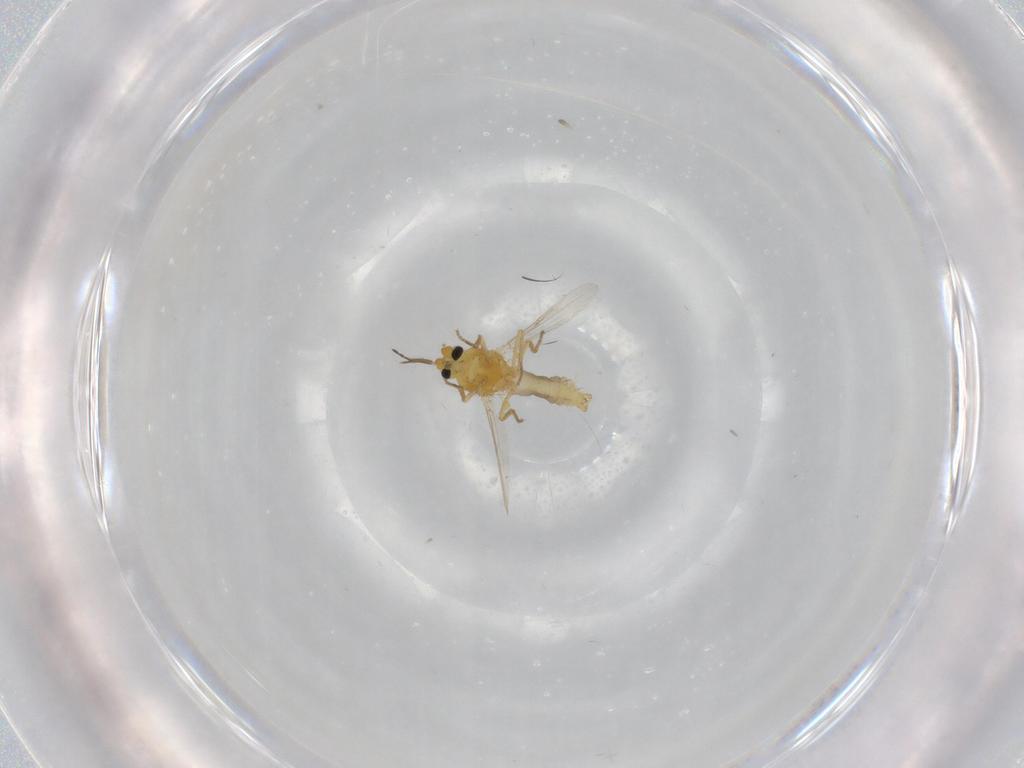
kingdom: Animalia
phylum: Arthropoda
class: Insecta
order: Diptera
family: Ceratopogonidae
